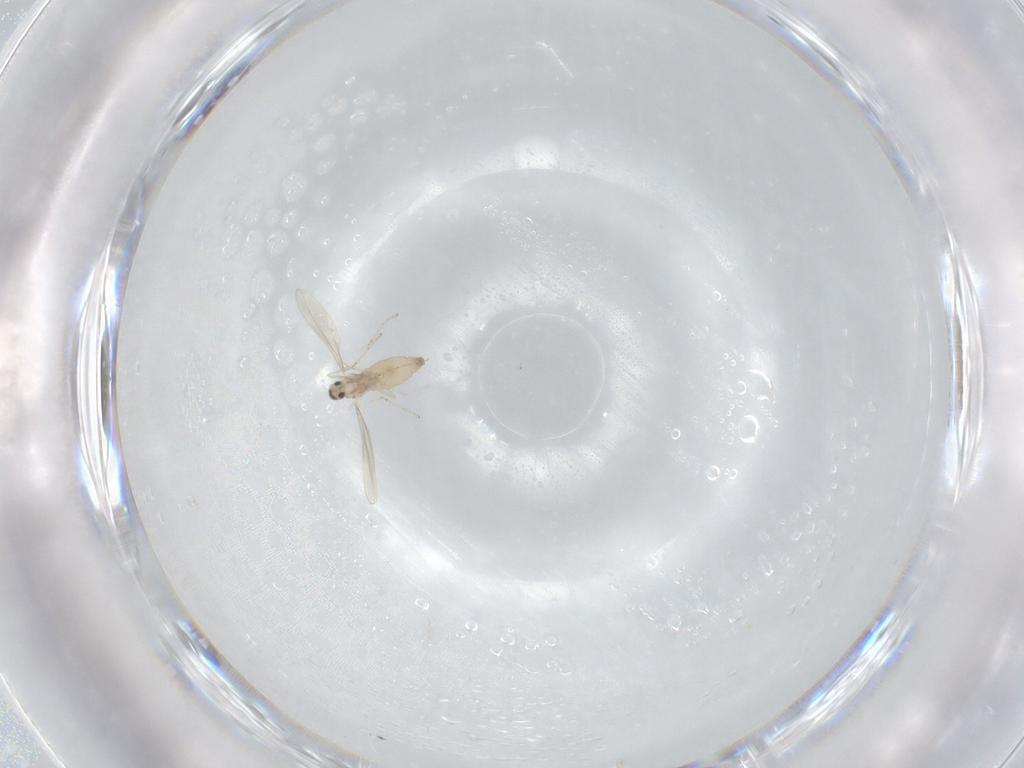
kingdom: Animalia
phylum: Arthropoda
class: Insecta
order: Diptera
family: Cecidomyiidae
